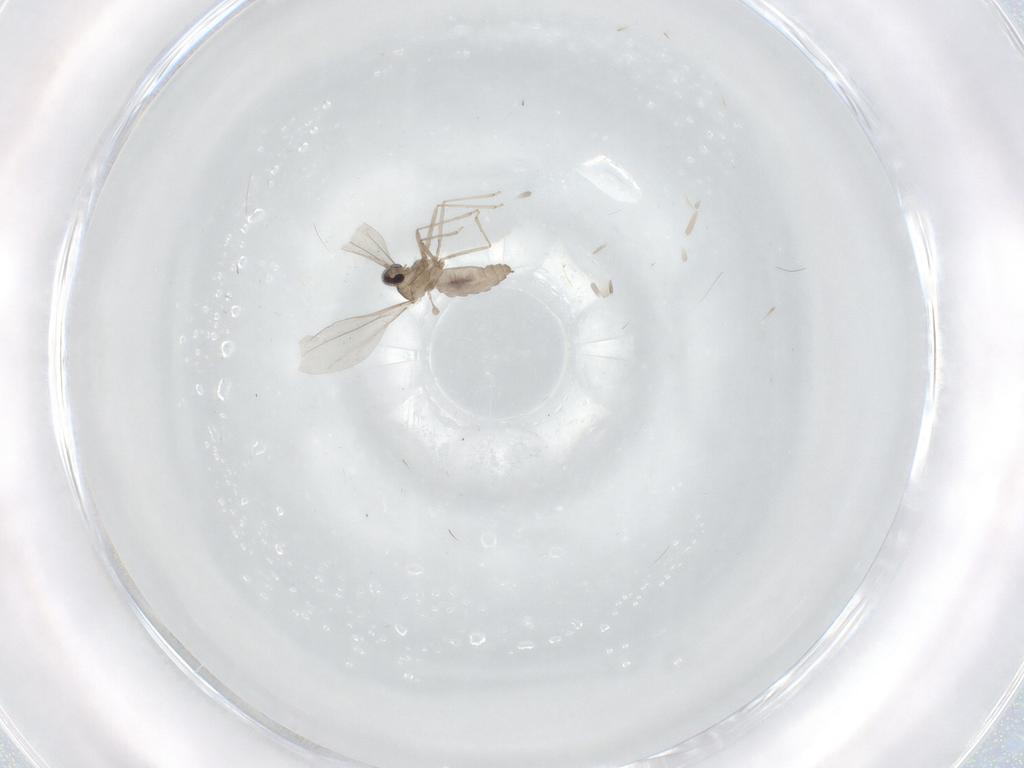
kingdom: Animalia
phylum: Arthropoda
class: Insecta
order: Diptera
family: Cecidomyiidae
